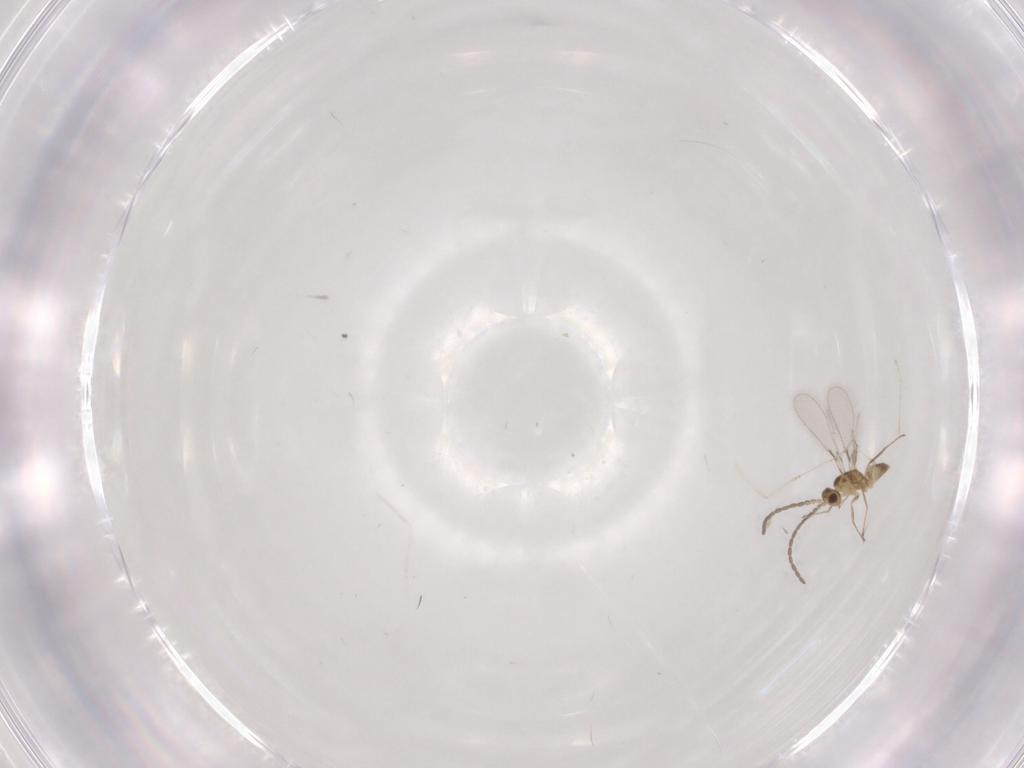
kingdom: Animalia
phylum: Arthropoda
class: Insecta
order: Hymenoptera
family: Mymaridae
